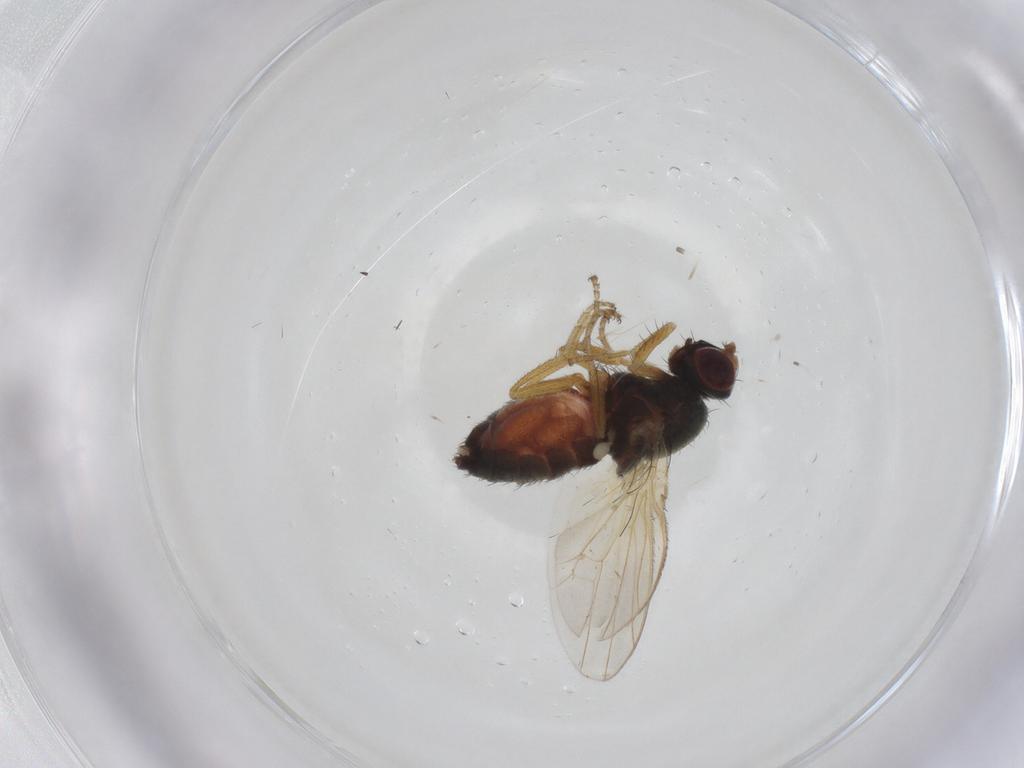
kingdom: Animalia
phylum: Arthropoda
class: Insecta
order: Diptera
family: Heleomyzidae
